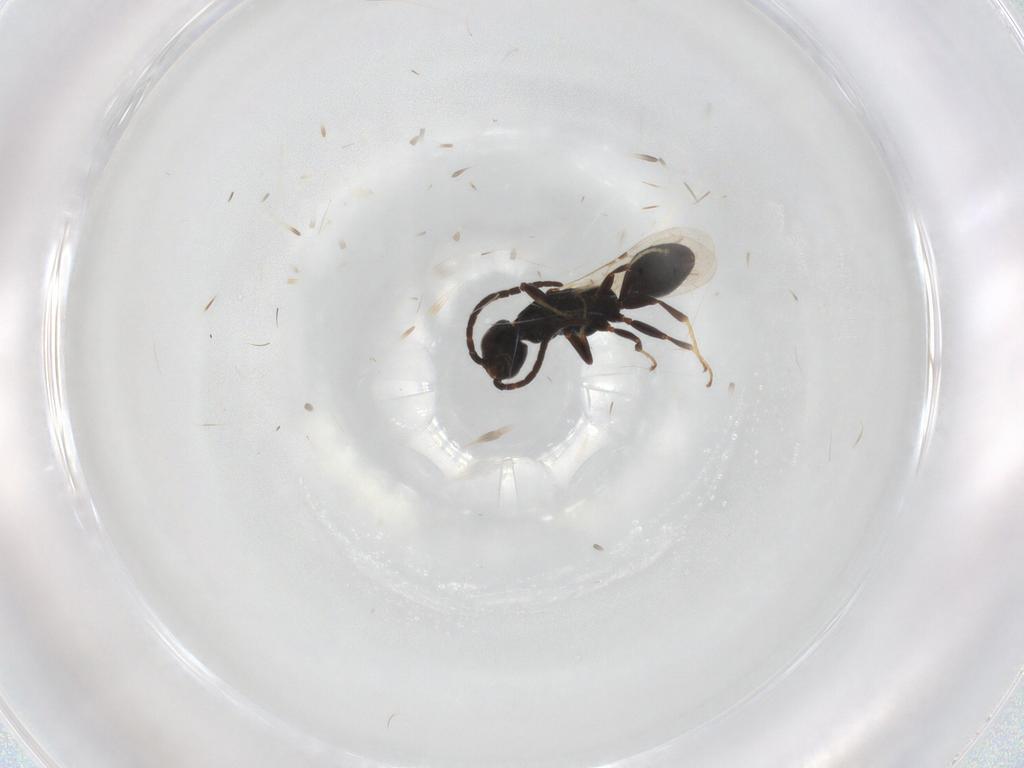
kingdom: Animalia
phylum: Arthropoda
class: Insecta
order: Hymenoptera
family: Bethylidae
